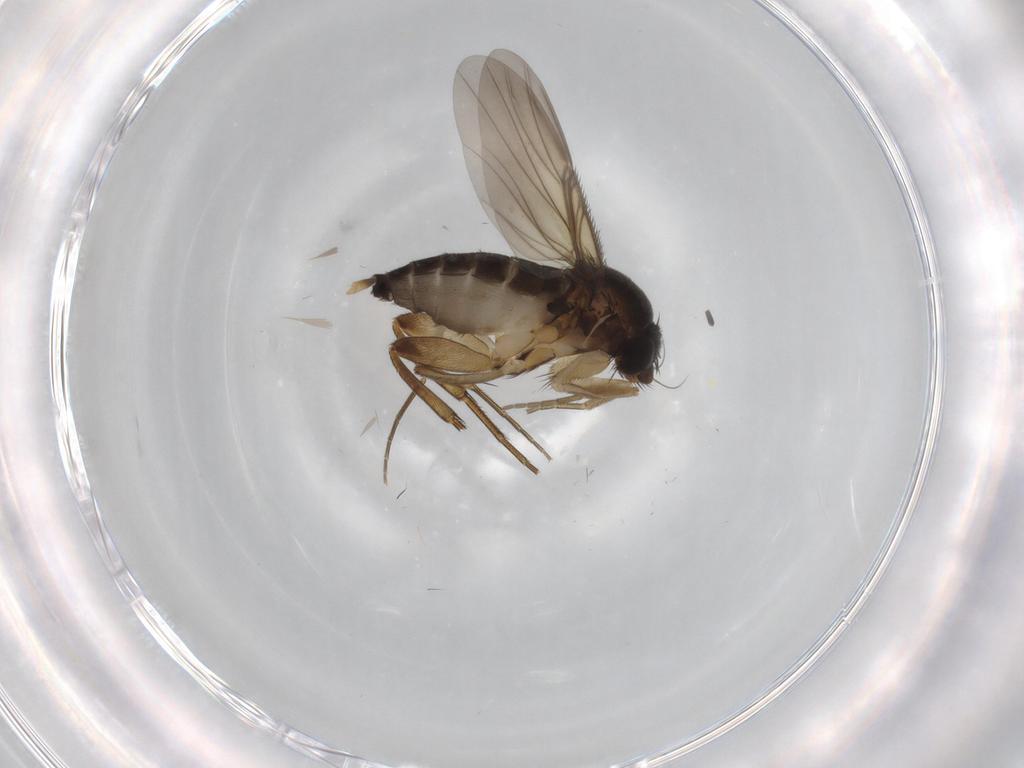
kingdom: Animalia
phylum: Arthropoda
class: Insecta
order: Diptera
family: Phoridae
